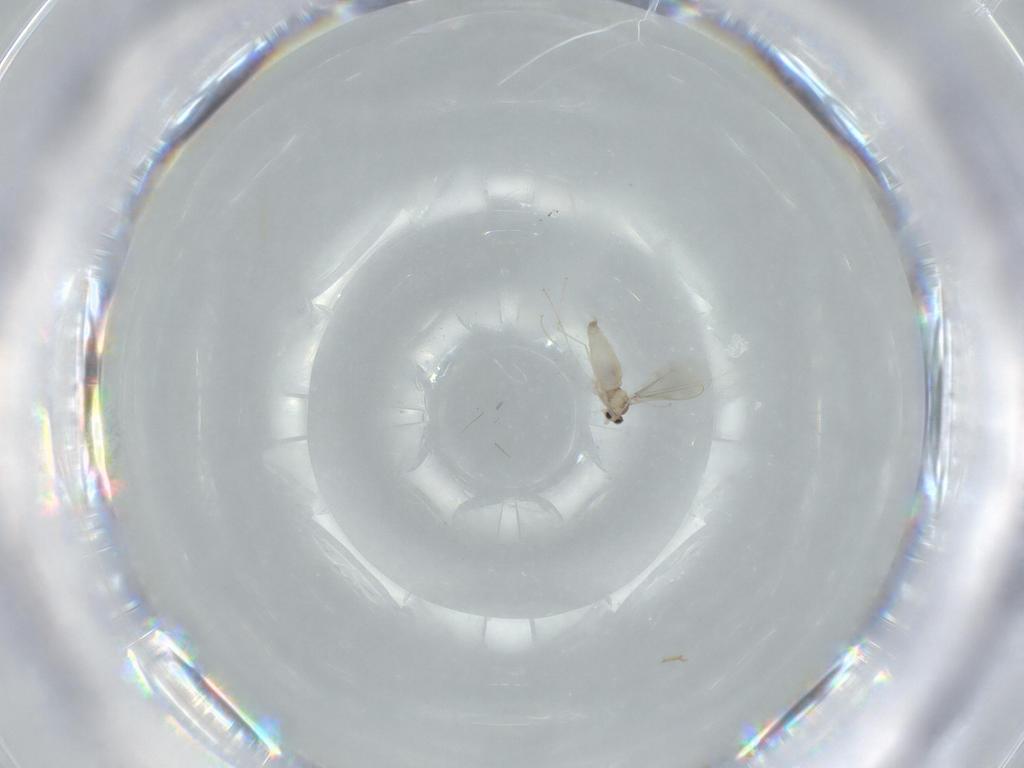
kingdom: Animalia
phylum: Arthropoda
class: Insecta
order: Diptera
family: Cecidomyiidae
